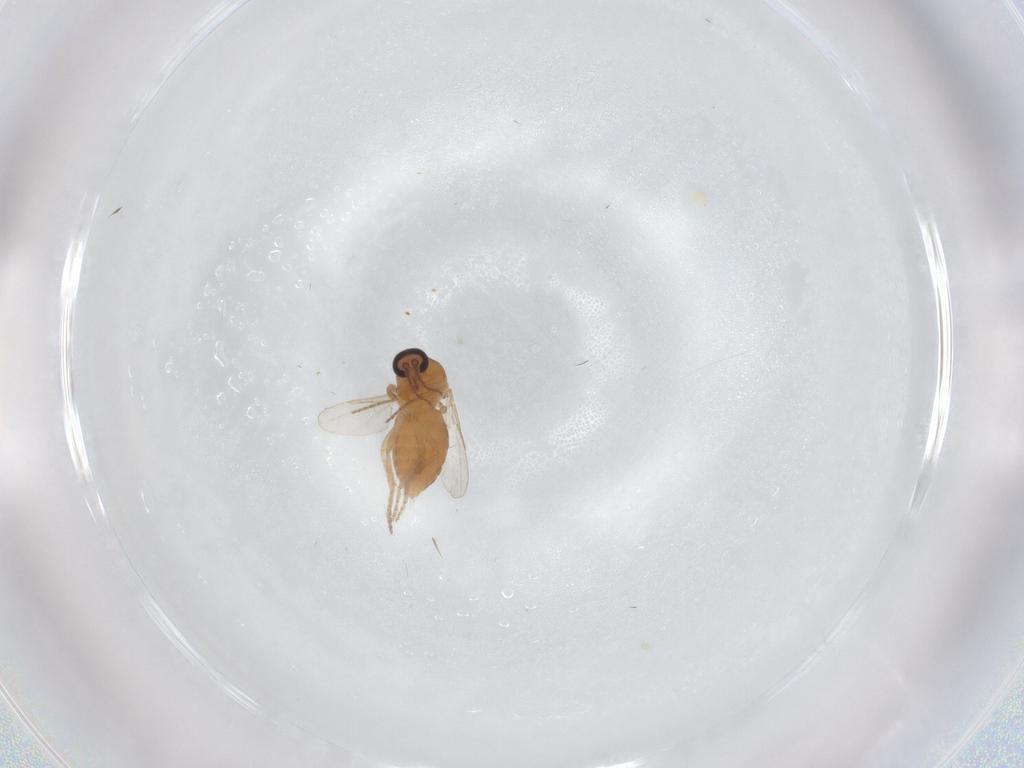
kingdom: Animalia
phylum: Arthropoda
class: Insecta
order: Diptera
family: Ceratopogonidae
